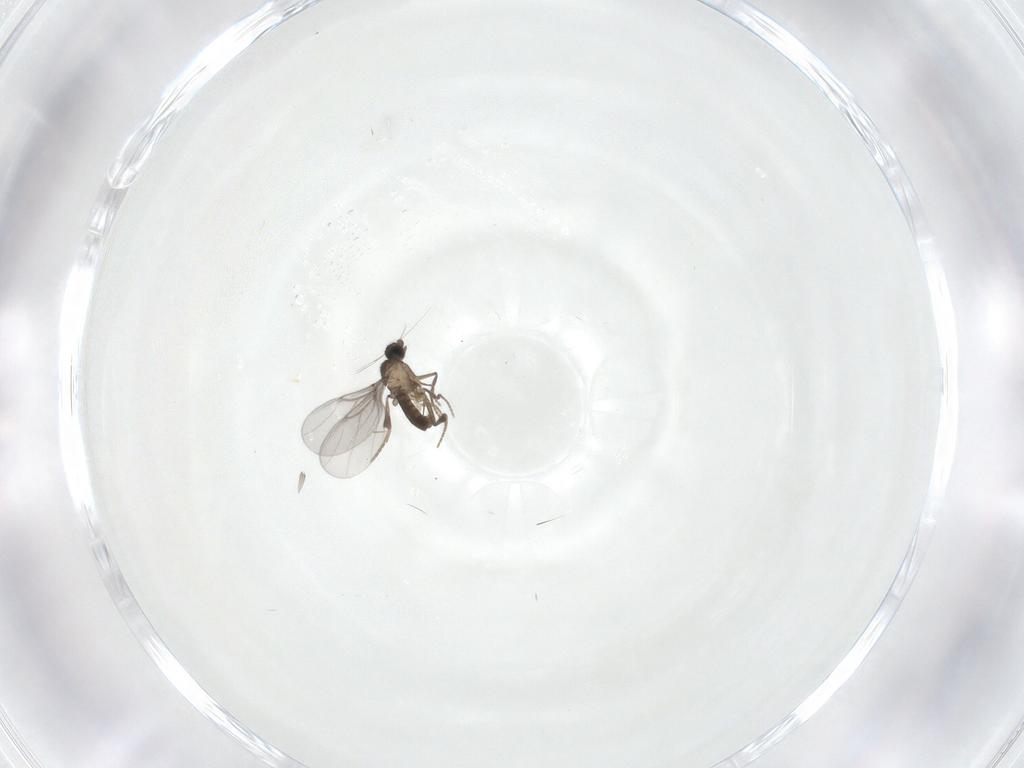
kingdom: Animalia
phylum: Arthropoda
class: Insecta
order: Diptera
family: Phoridae
